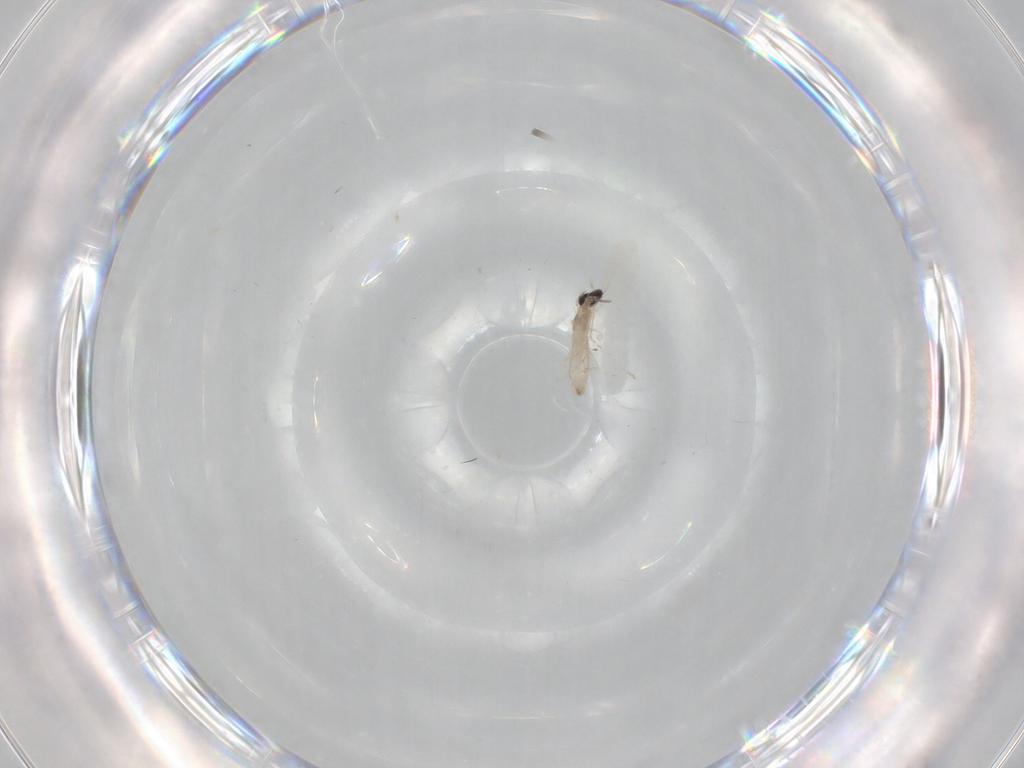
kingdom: Animalia
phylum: Arthropoda
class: Insecta
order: Diptera
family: Cecidomyiidae
